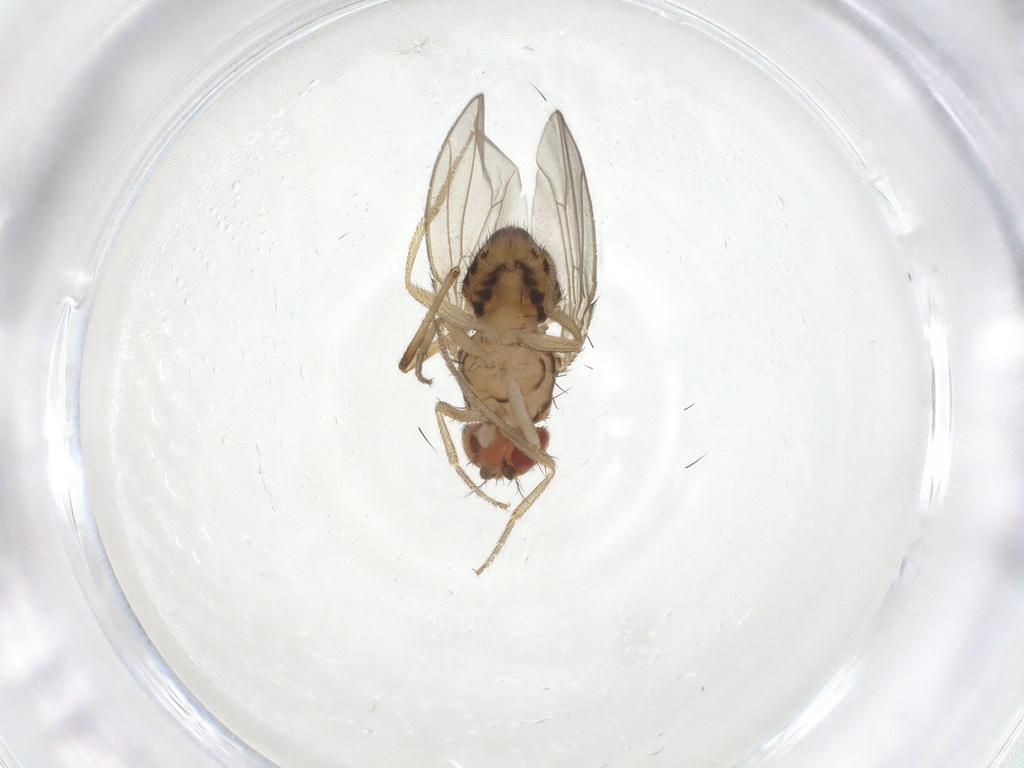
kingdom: Animalia
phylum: Arthropoda
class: Insecta
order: Diptera
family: Drosophilidae
